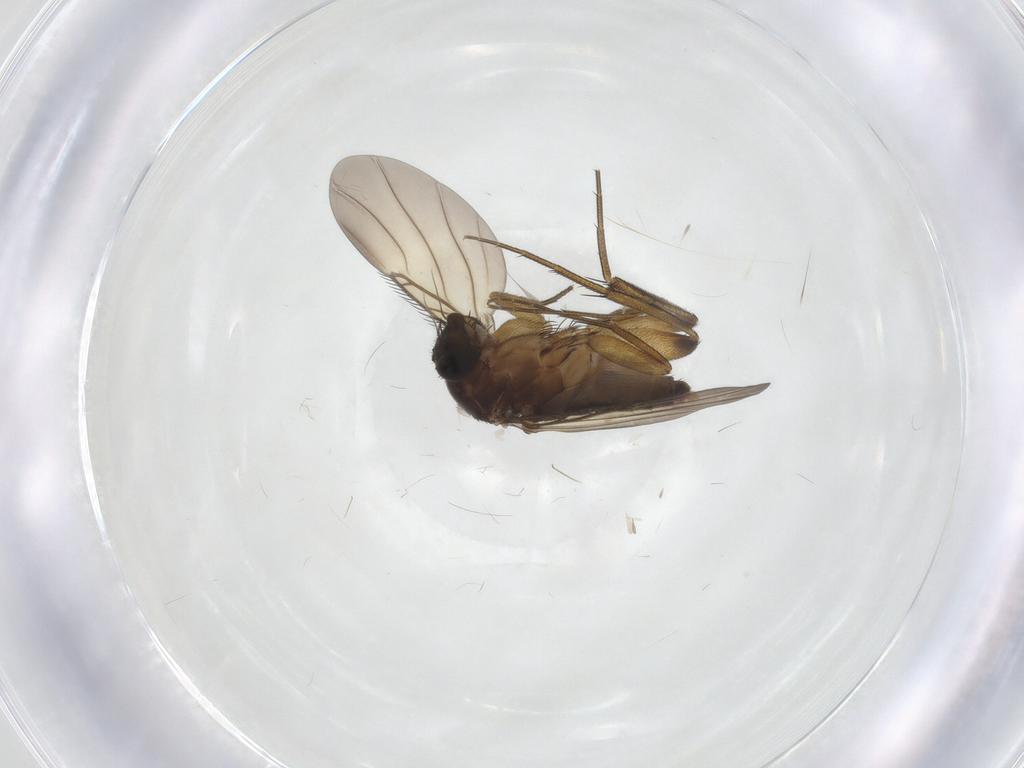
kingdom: Animalia
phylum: Arthropoda
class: Insecta
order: Diptera
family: Chironomidae
